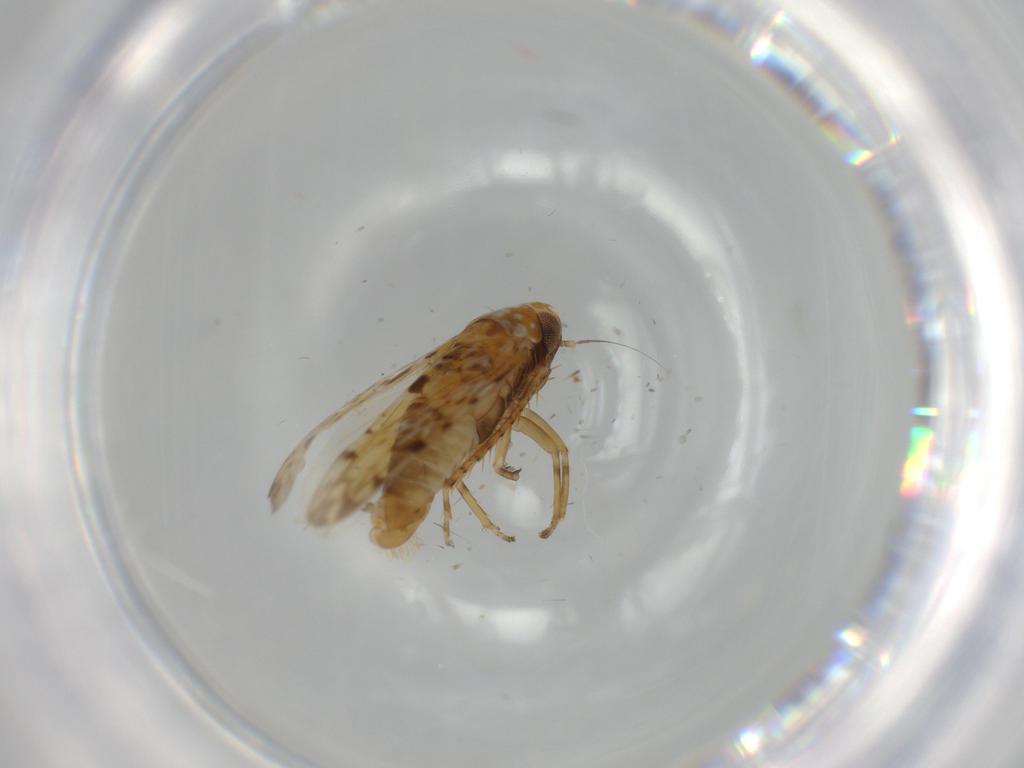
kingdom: Animalia
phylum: Arthropoda
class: Insecta
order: Hemiptera
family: Cicadellidae
